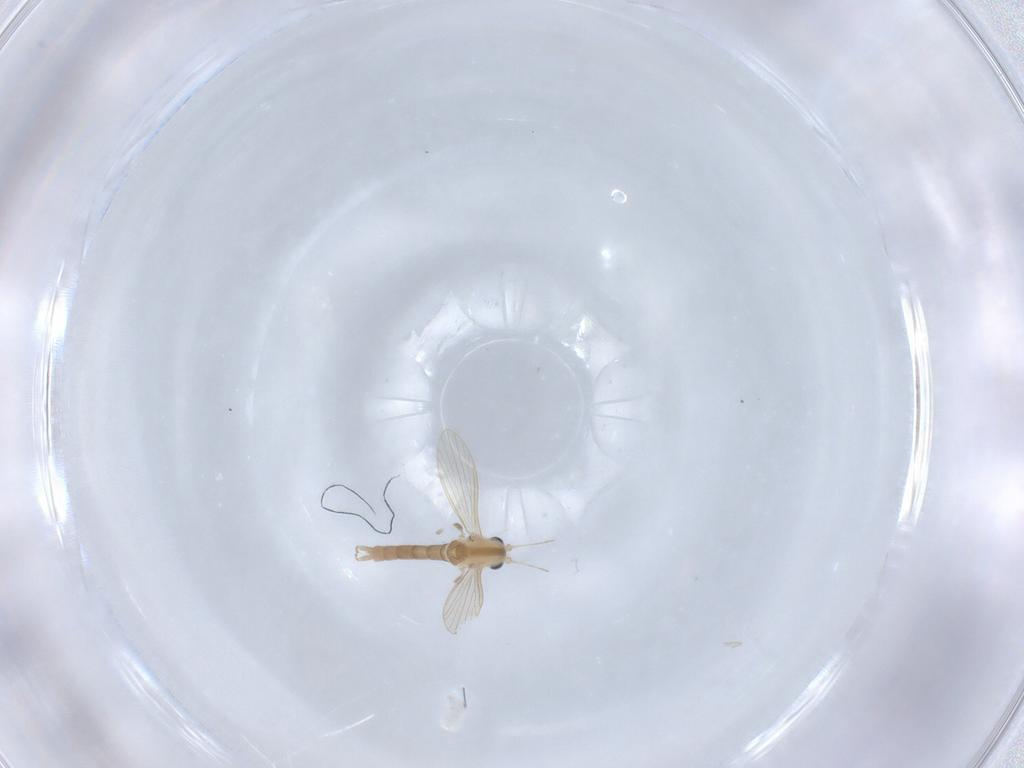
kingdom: Animalia
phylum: Arthropoda
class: Insecta
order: Diptera
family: Psychodidae
